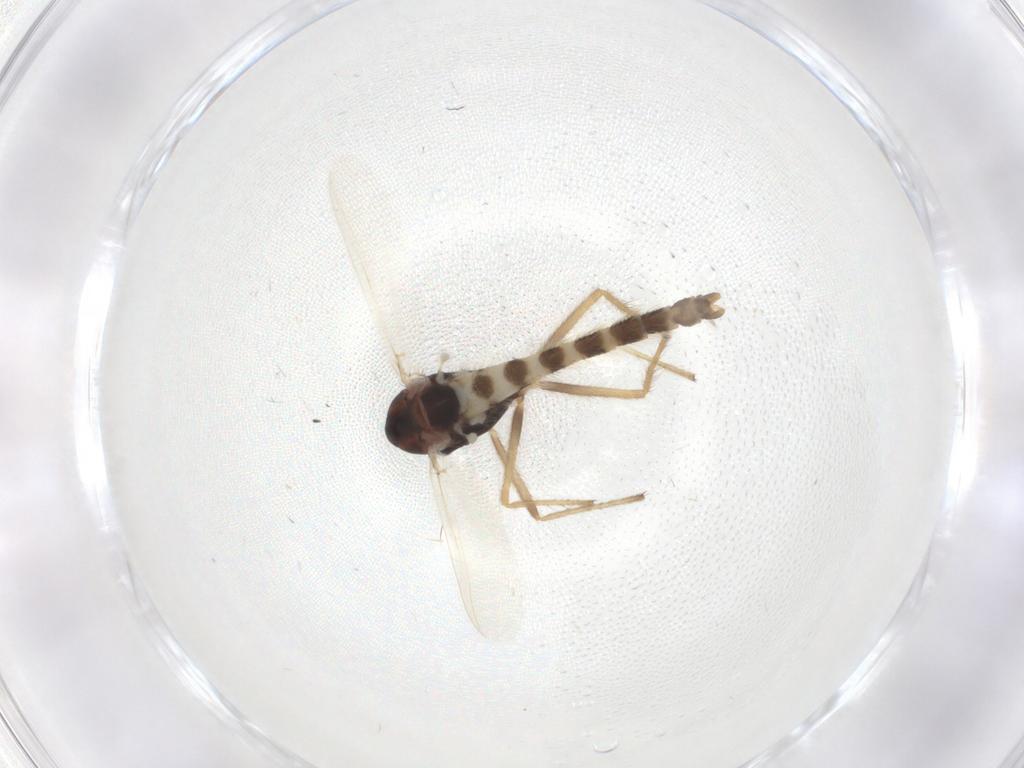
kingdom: Animalia
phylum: Arthropoda
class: Insecta
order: Diptera
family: Chironomidae
